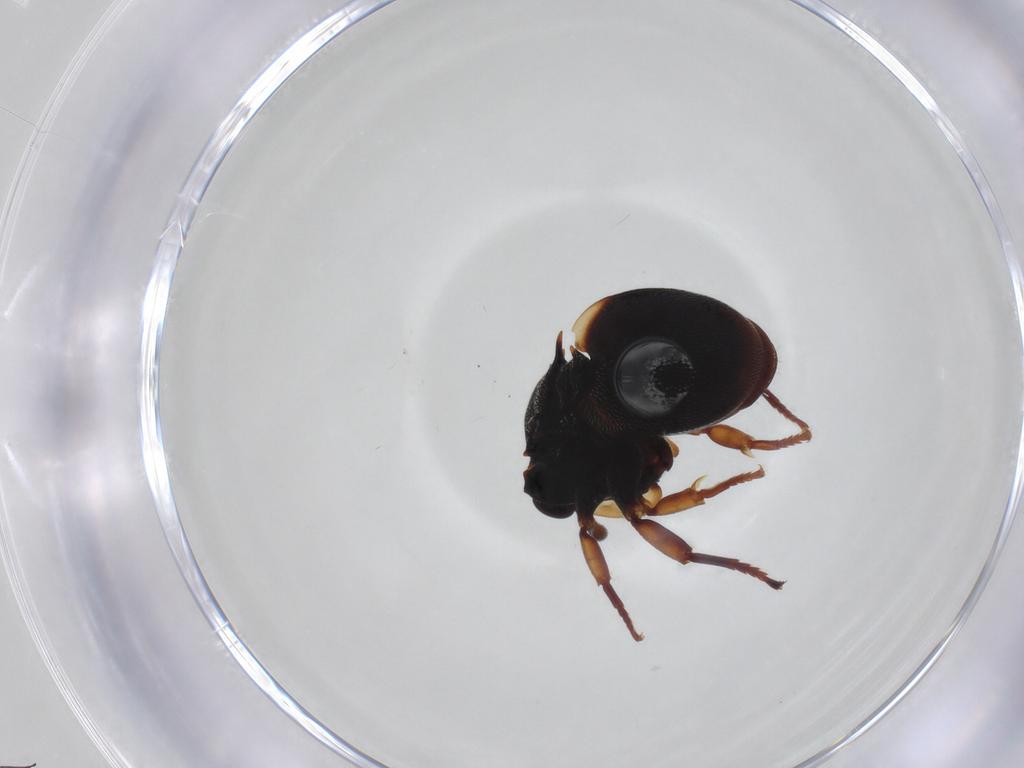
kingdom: Animalia
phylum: Arthropoda
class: Insecta
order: Hymenoptera
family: Formicidae
